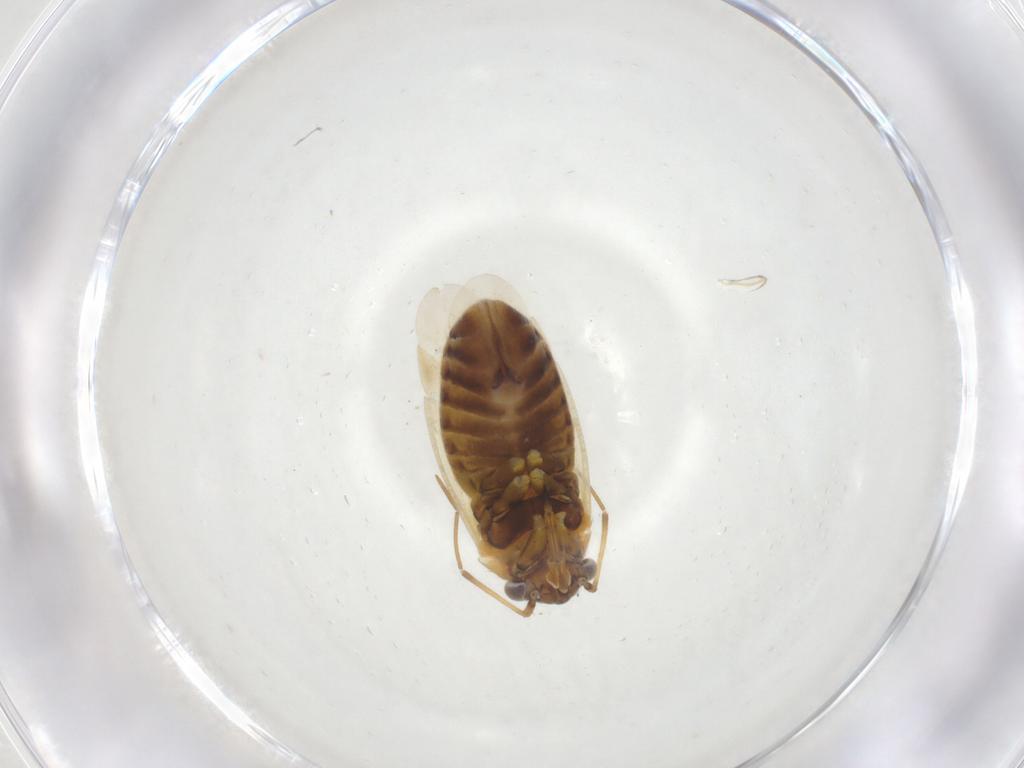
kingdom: Animalia
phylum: Arthropoda
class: Insecta
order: Hemiptera
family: Miridae
